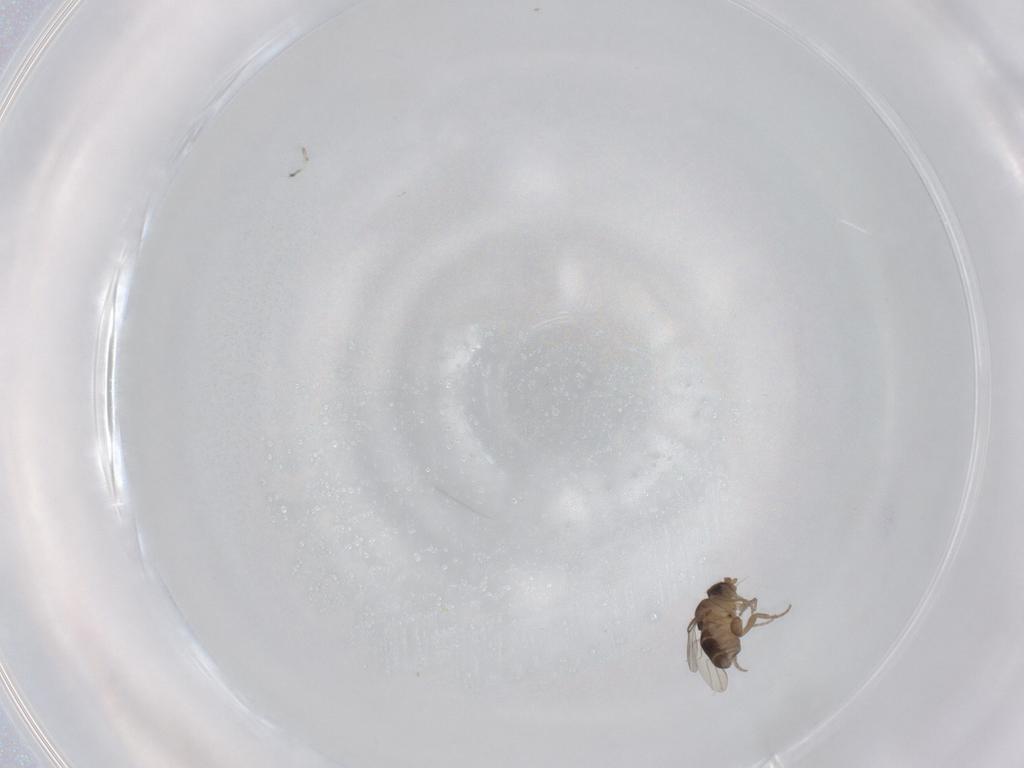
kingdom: Animalia
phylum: Arthropoda
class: Insecta
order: Diptera
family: Phoridae
